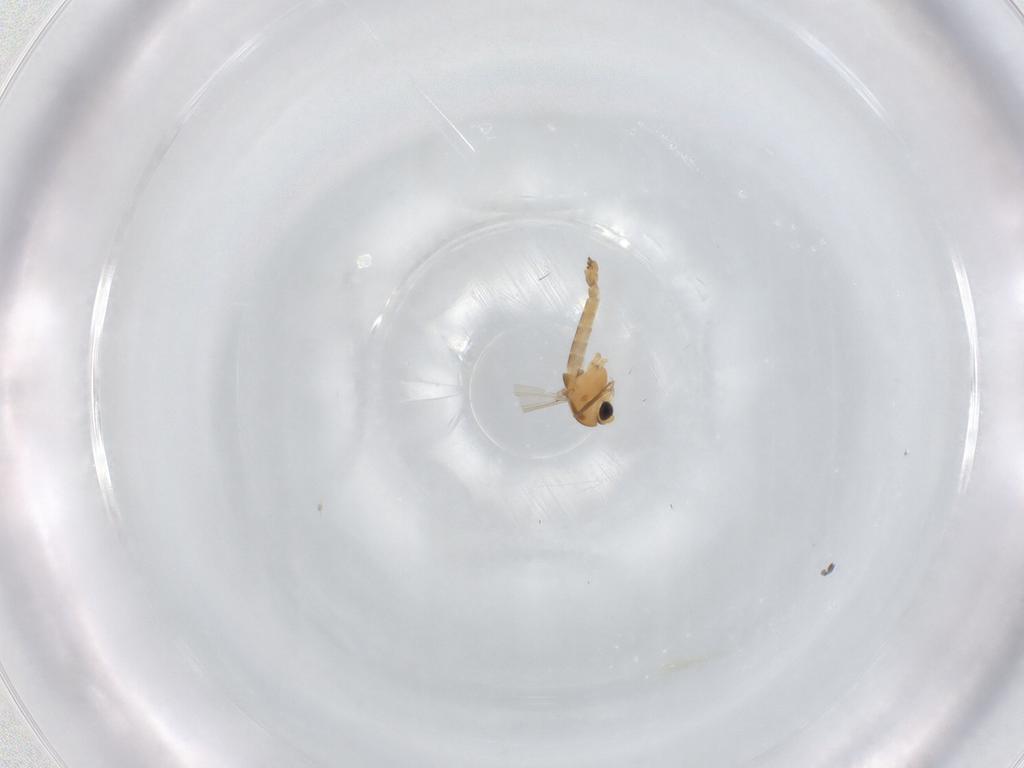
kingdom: Animalia
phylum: Arthropoda
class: Insecta
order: Diptera
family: Chironomidae
